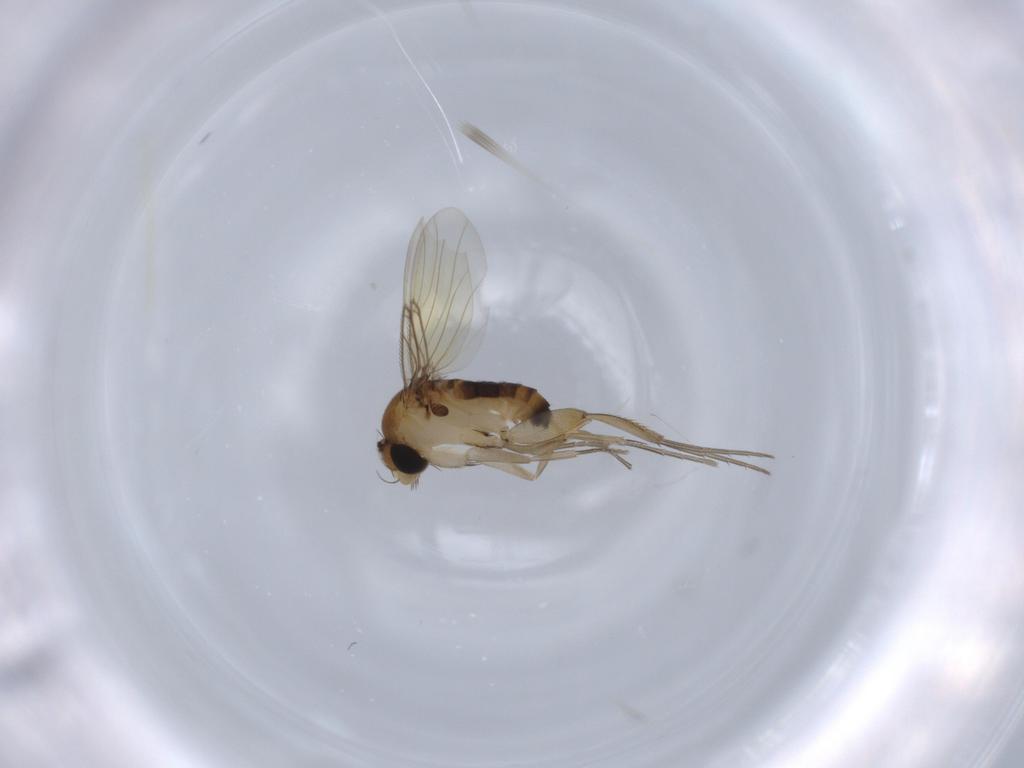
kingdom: Animalia
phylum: Arthropoda
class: Insecta
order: Diptera
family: Phoridae
